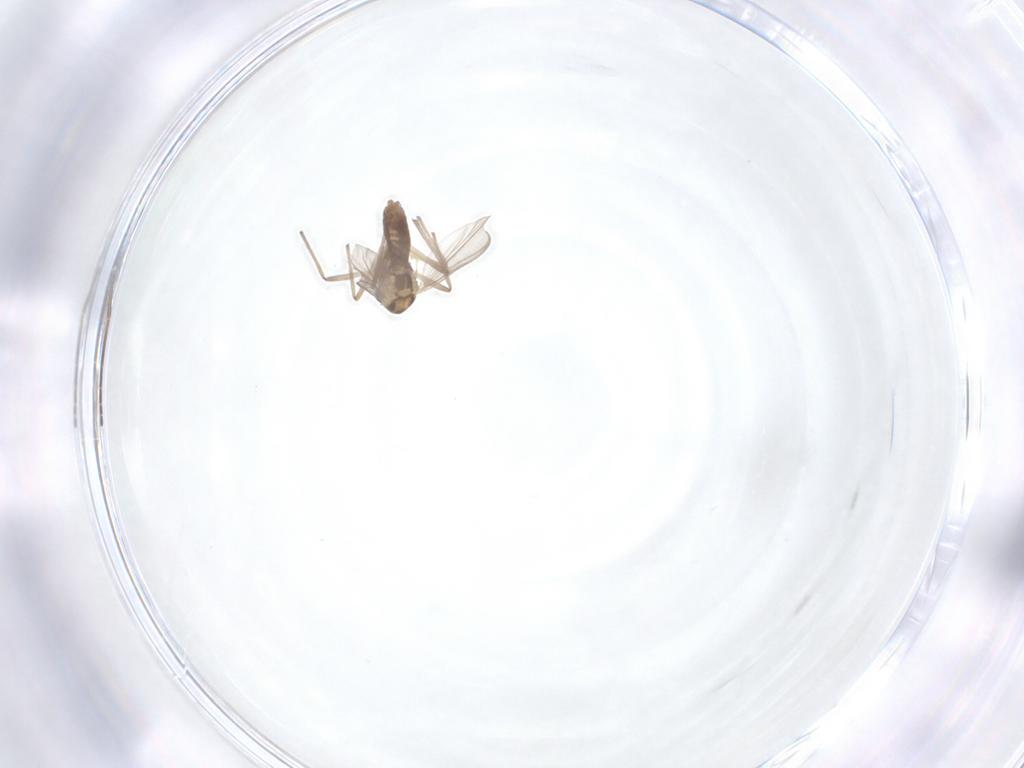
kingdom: Animalia
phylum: Arthropoda
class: Insecta
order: Diptera
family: Chironomidae
